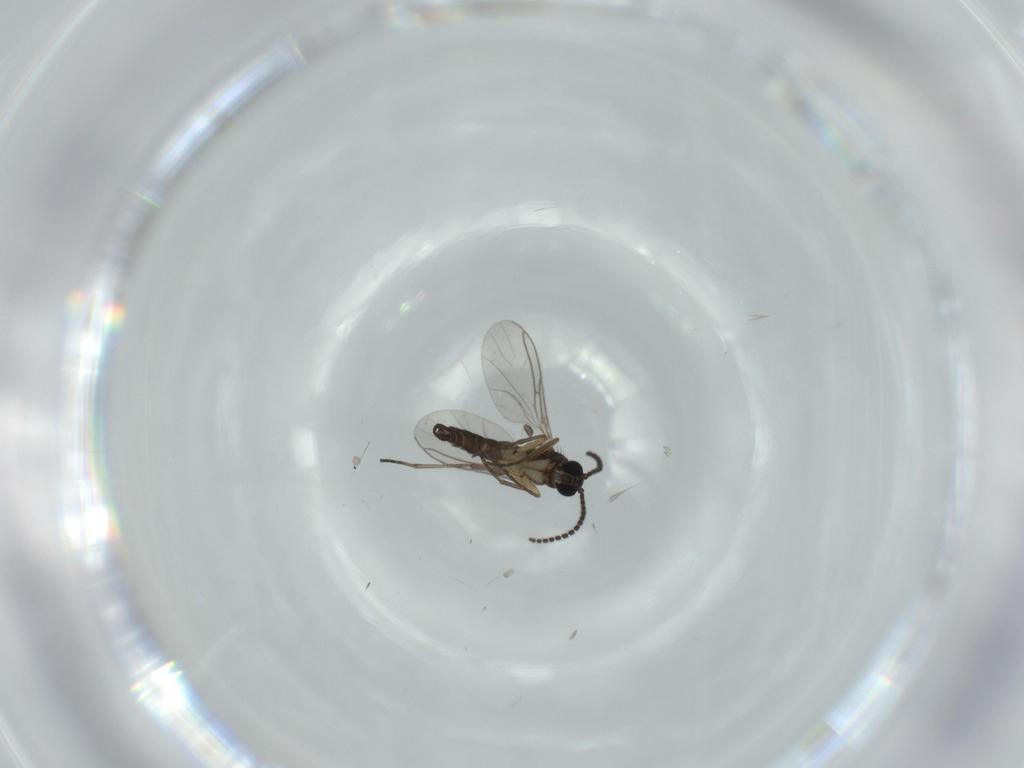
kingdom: Animalia
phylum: Arthropoda
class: Insecta
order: Diptera
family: Sciaridae
